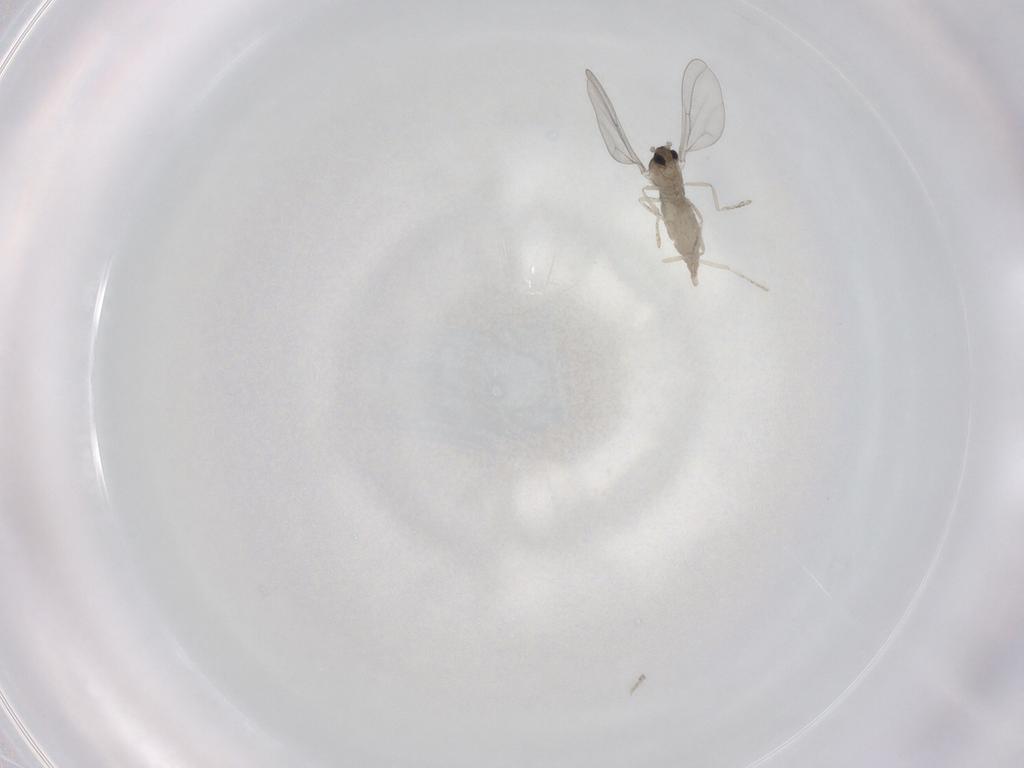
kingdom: Animalia
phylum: Arthropoda
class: Insecta
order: Diptera
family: Cecidomyiidae
